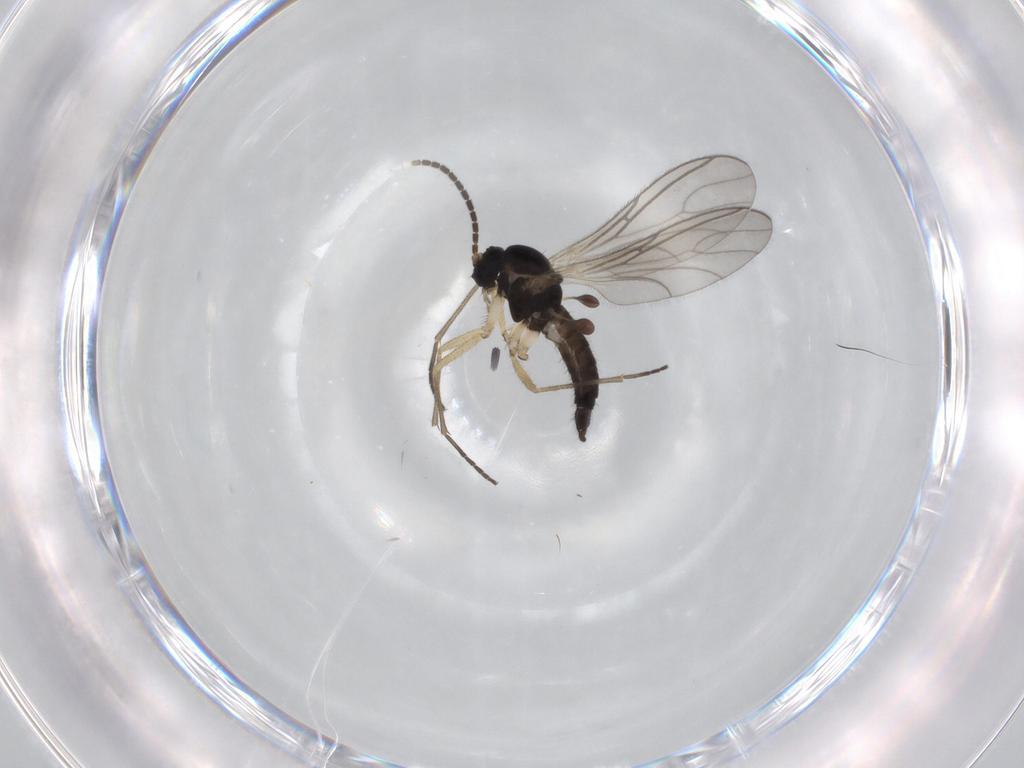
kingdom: Animalia
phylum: Arthropoda
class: Insecta
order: Diptera
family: Sciaridae
